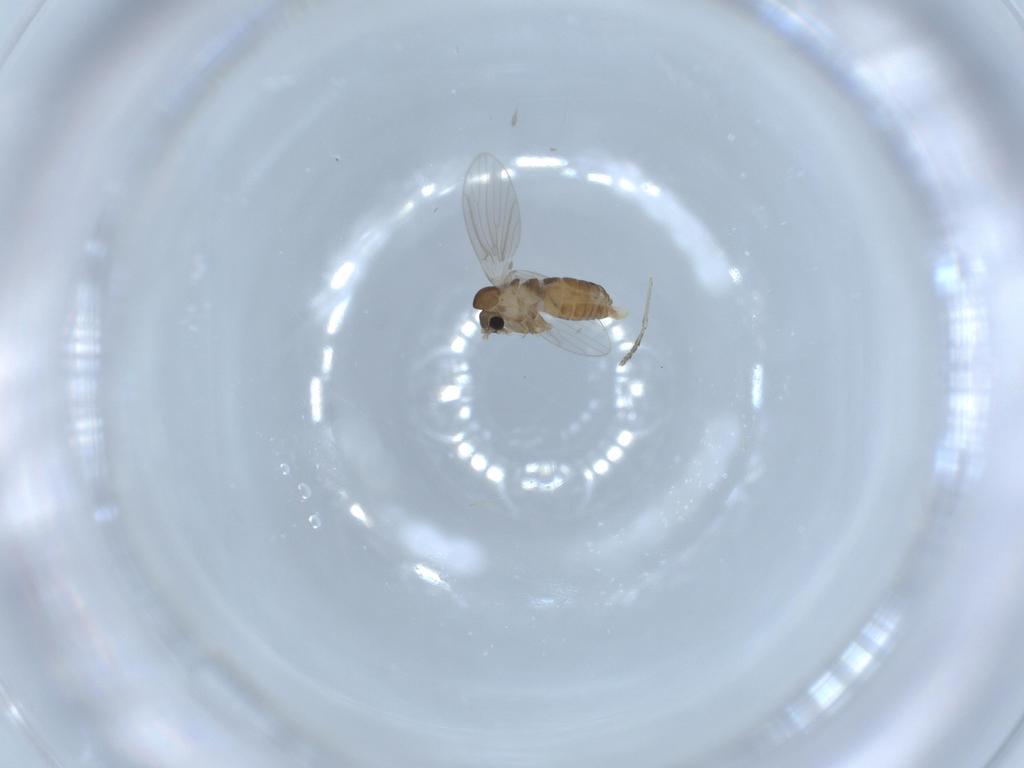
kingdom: Animalia
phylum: Arthropoda
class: Insecta
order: Diptera
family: Psychodidae
